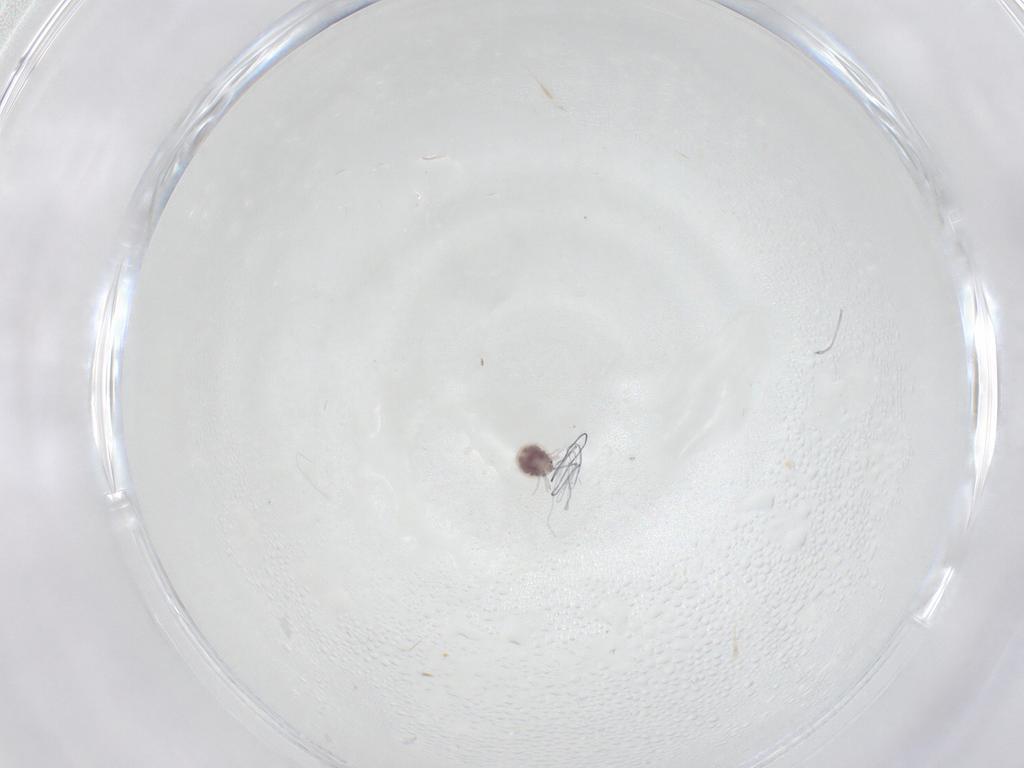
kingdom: Animalia
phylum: Arthropoda
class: Arachnida
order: Trombidiformes
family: Pionidae
